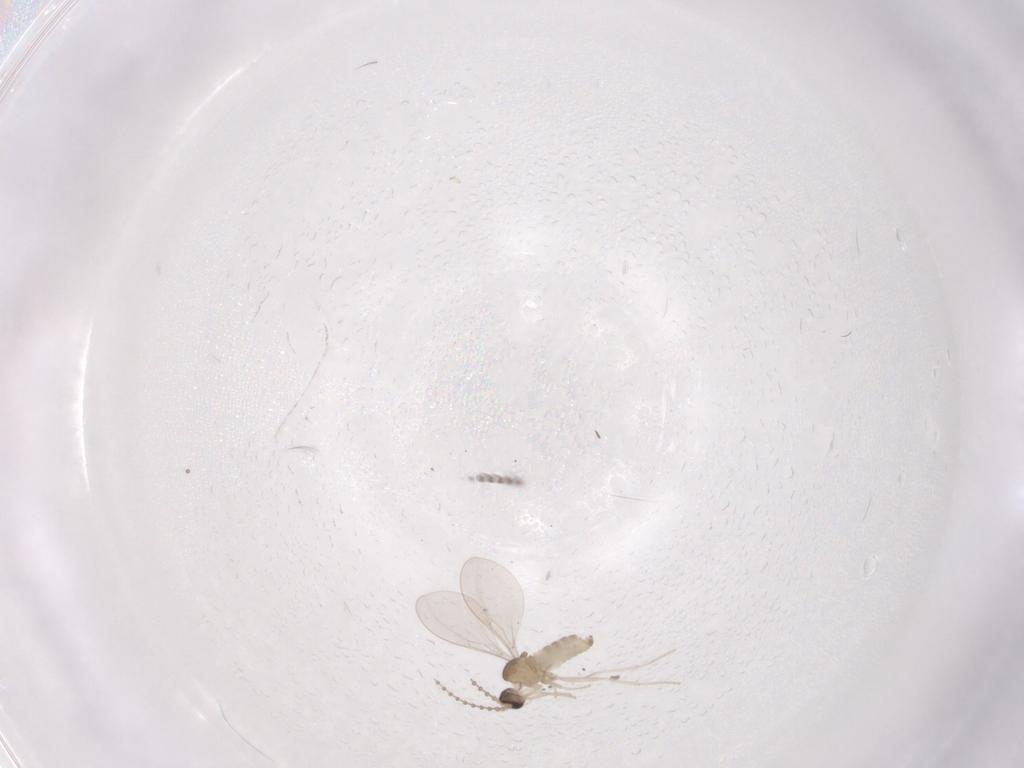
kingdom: Animalia
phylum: Arthropoda
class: Insecta
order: Diptera
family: Cecidomyiidae
